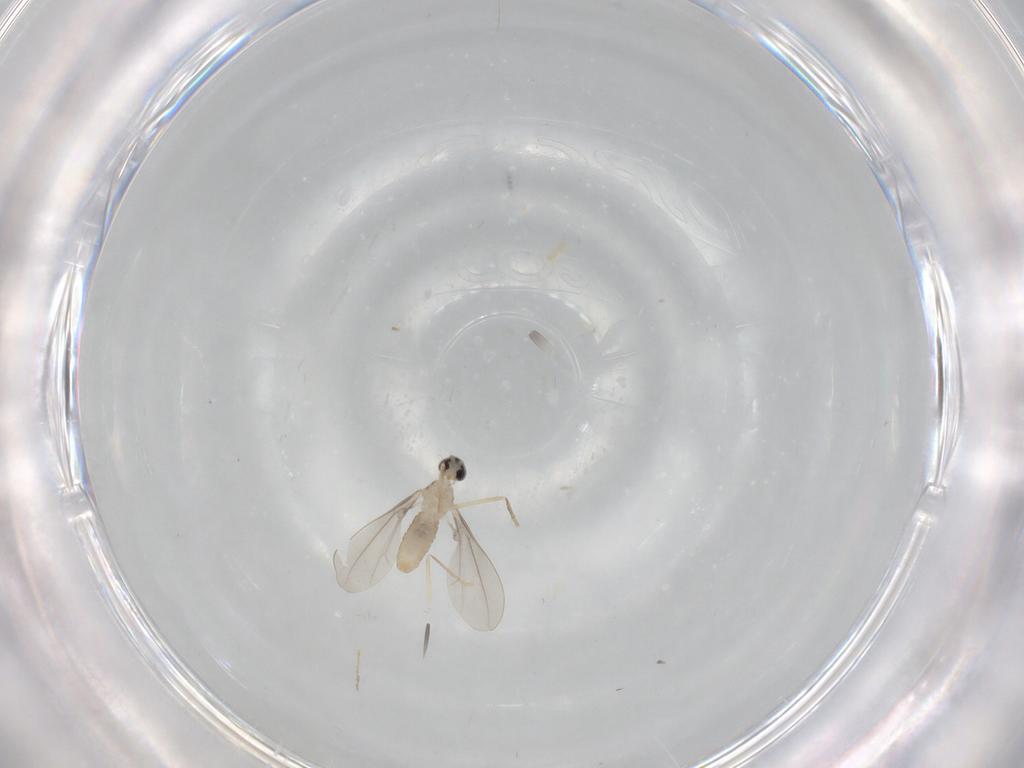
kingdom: Animalia
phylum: Arthropoda
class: Insecta
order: Diptera
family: Cecidomyiidae
